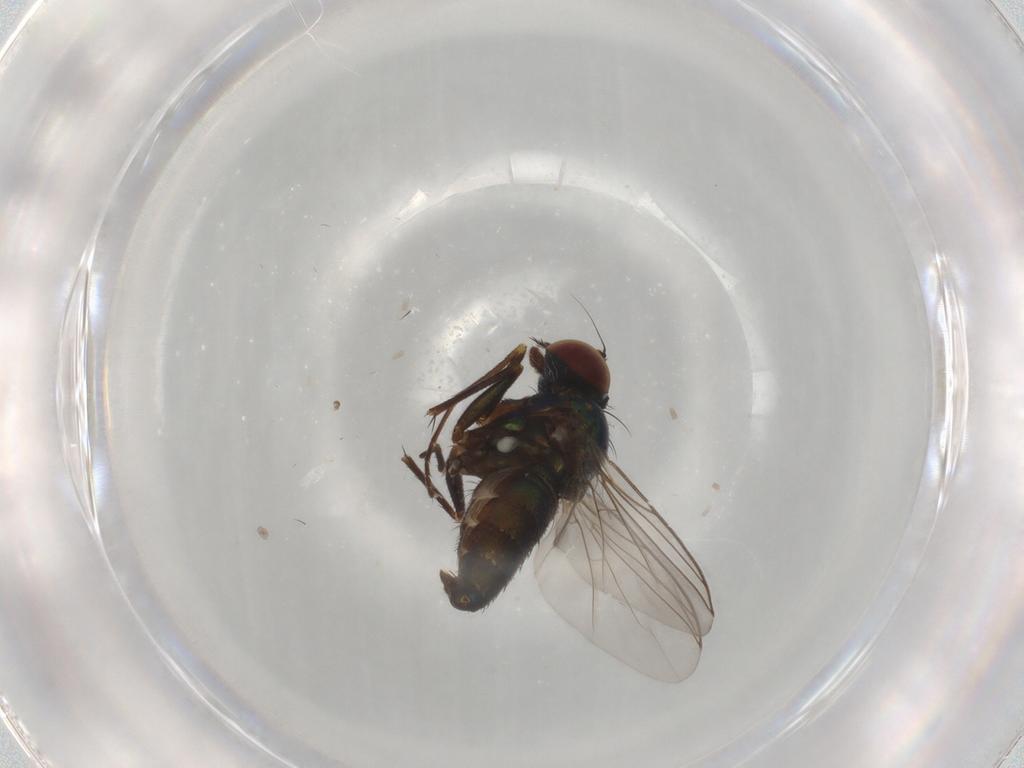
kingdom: Animalia
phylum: Arthropoda
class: Insecta
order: Diptera
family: Dolichopodidae
